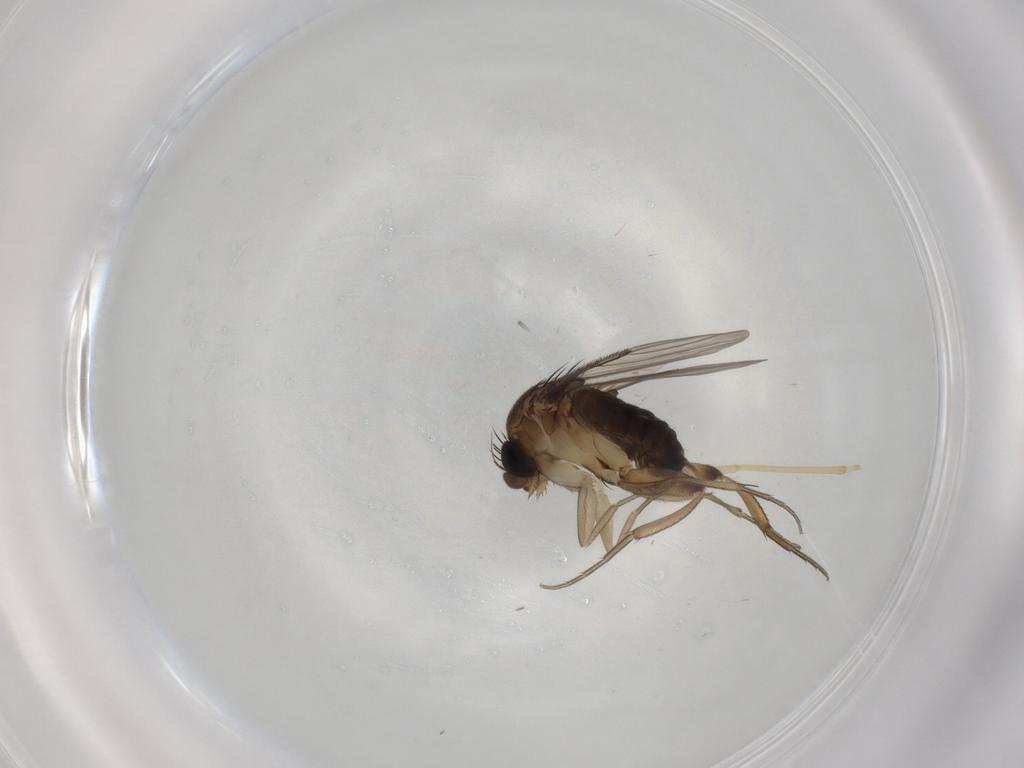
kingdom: Animalia
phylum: Arthropoda
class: Insecta
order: Diptera
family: Phoridae
